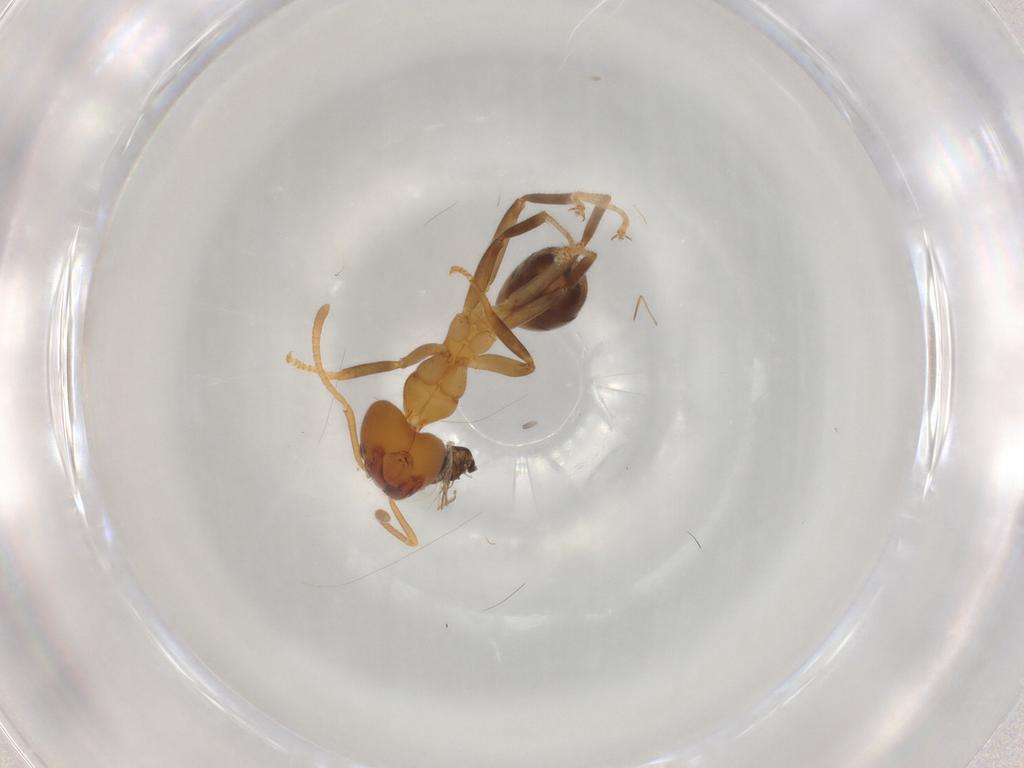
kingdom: Animalia
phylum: Arthropoda
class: Insecta
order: Hymenoptera
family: Formicidae
